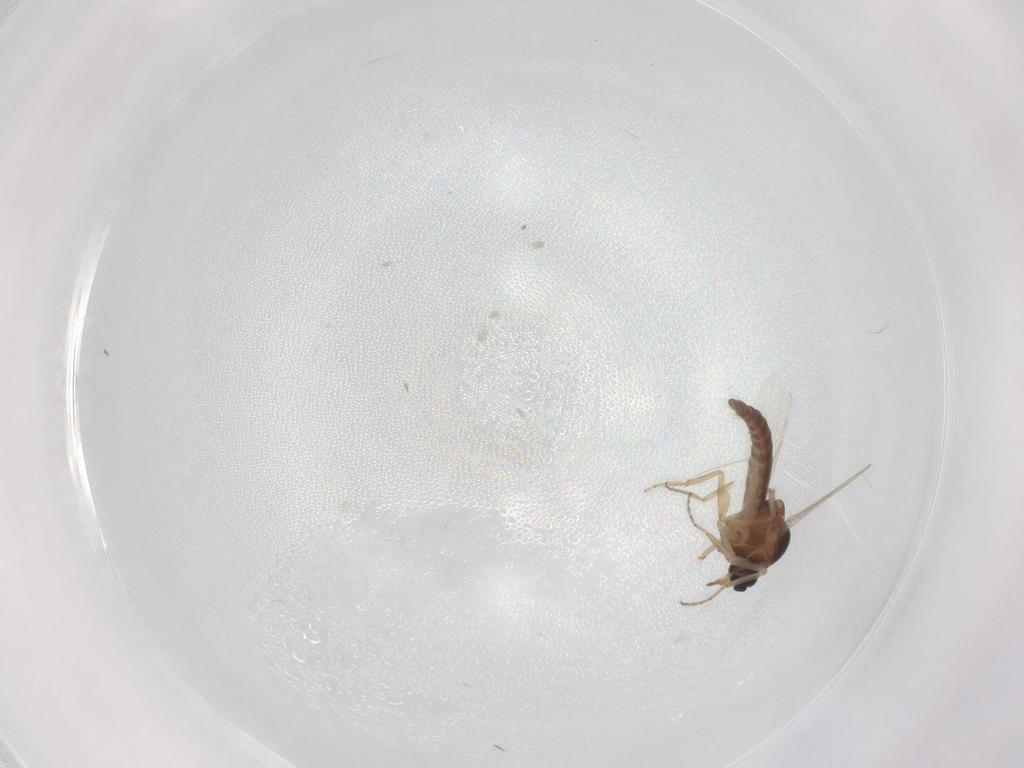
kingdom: Animalia
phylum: Arthropoda
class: Insecta
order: Diptera
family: Ceratopogonidae
